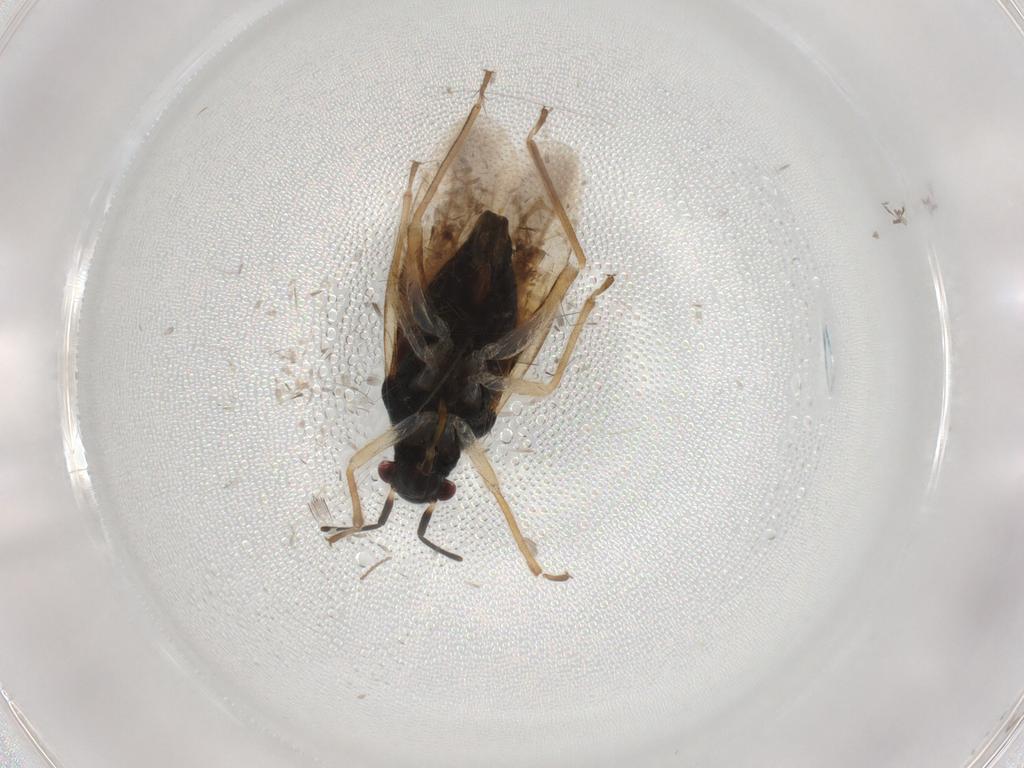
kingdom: Animalia
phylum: Arthropoda
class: Insecta
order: Hemiptera
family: Miridae
